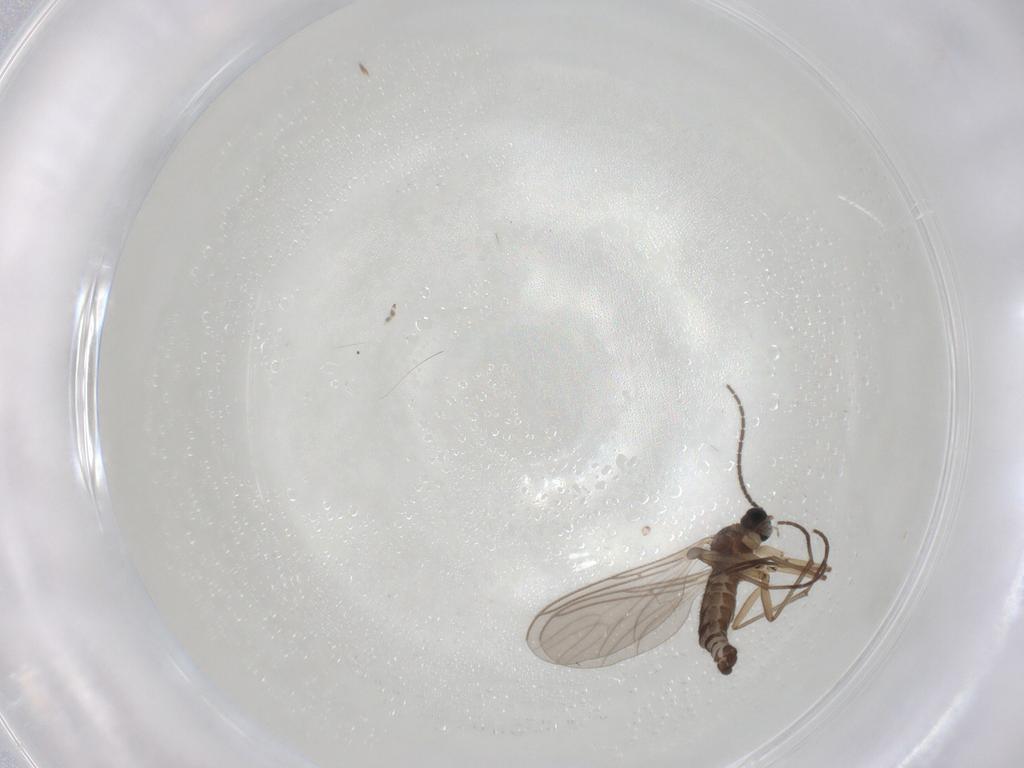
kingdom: Animalia
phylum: Arthropoda
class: Insecta
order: Diptera
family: Sciaridae
